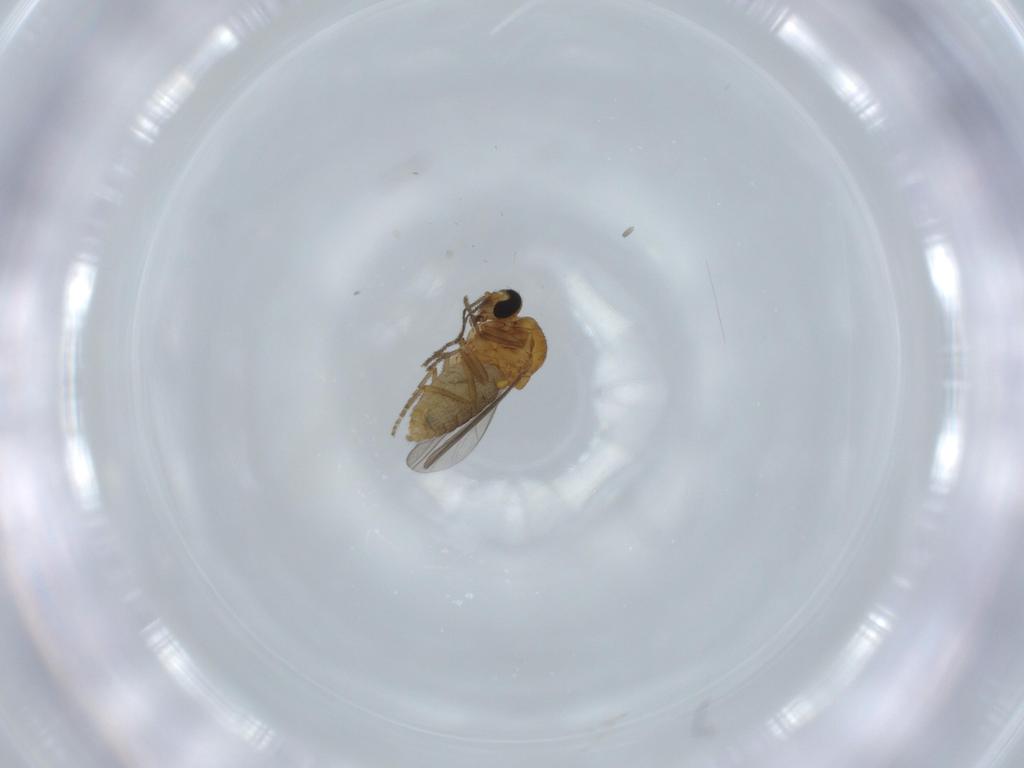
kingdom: Animalia
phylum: Arthropoda
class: Insecta
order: Diptera
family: Ceratopogonidae
